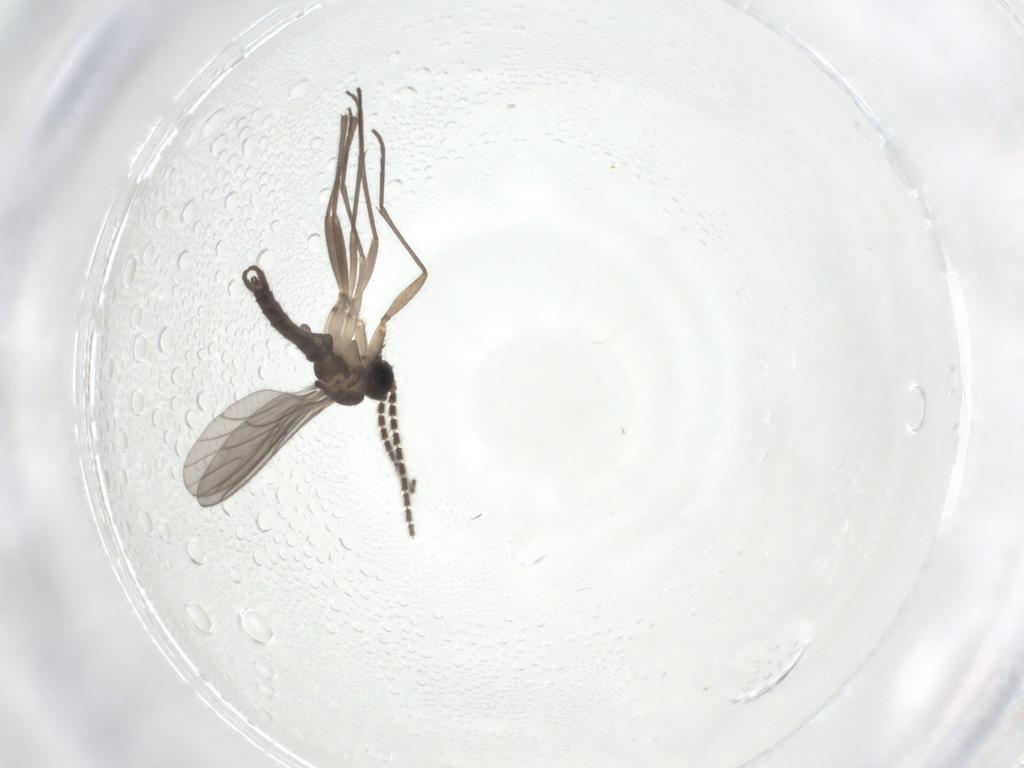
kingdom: Animalia
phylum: Arthropoda
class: Insecta
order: Diptera
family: Sciaridae
